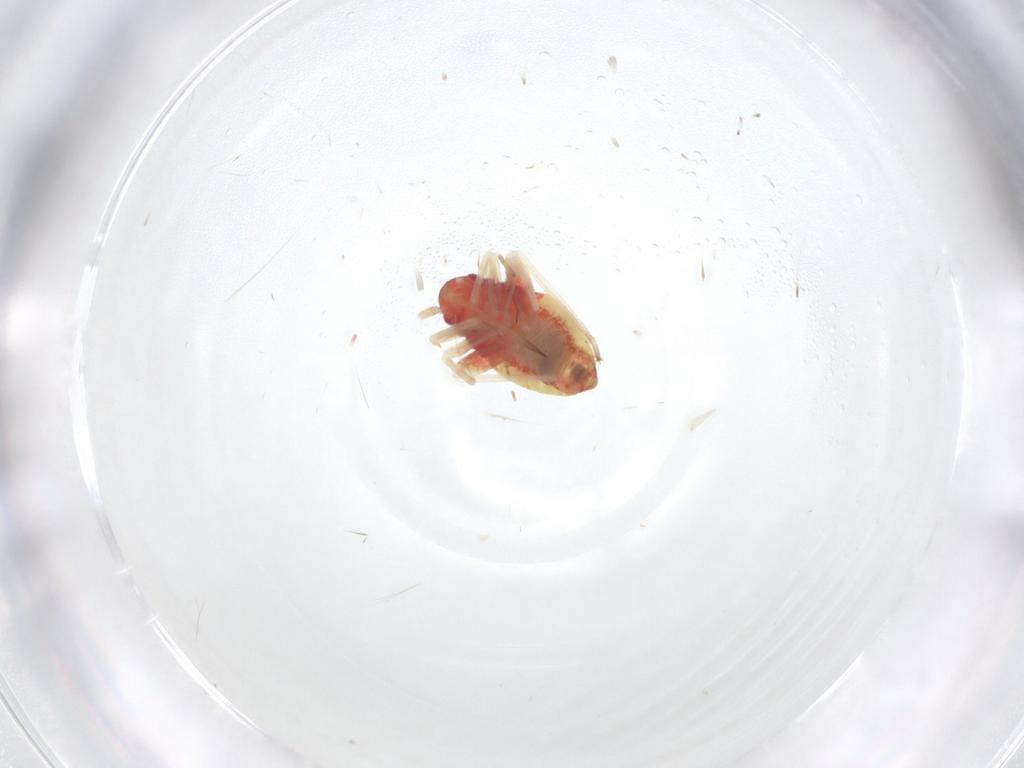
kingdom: Animalia
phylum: Arthropoda
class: Insecta
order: Hemiptera
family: Miridae
